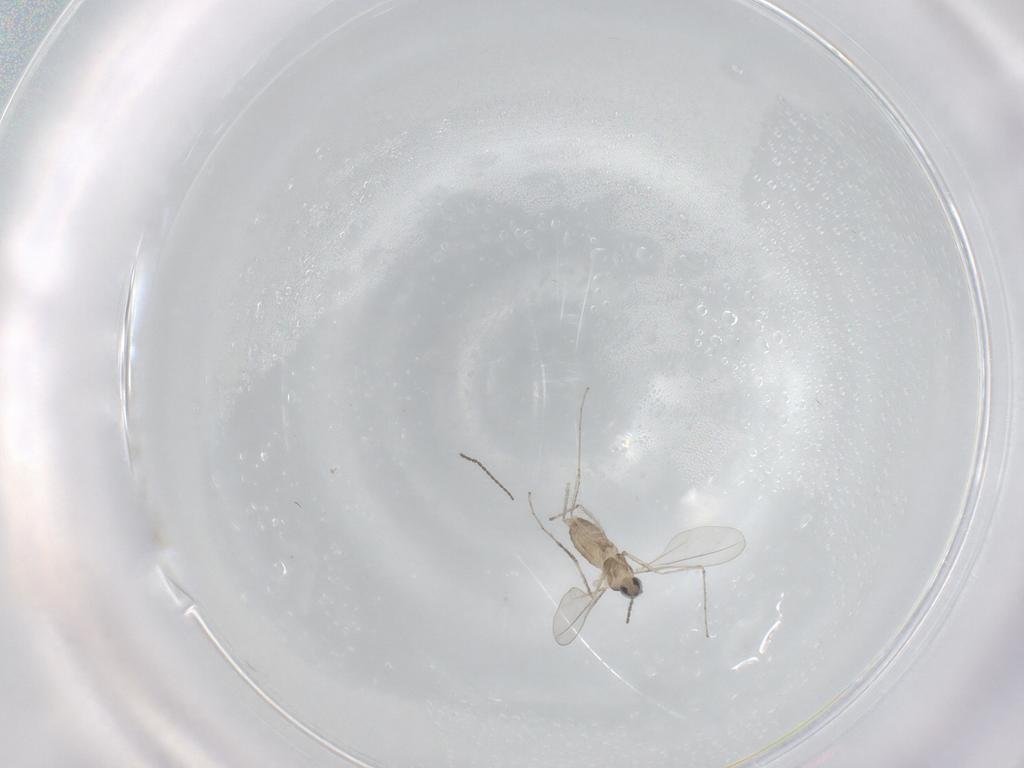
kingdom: Animalia
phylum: Arthropoda
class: Insecta
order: Diptera
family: Cecidomyiidae
